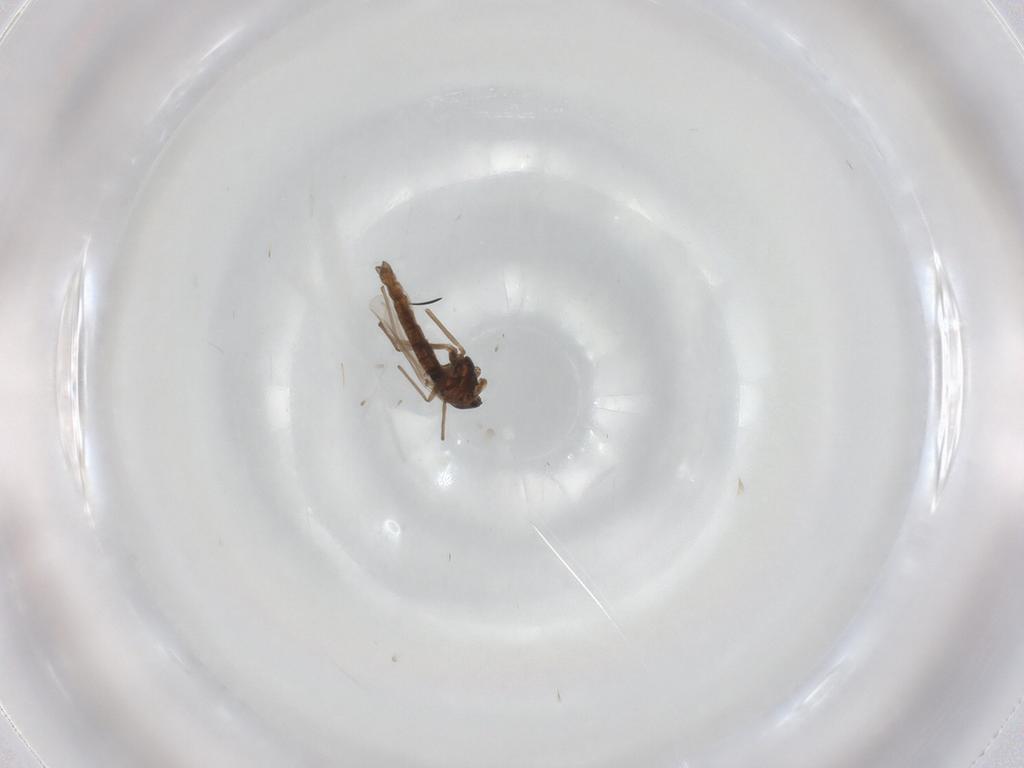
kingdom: Animalia
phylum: Arthropoda
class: Insecta
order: Diptera
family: Chironomidae
